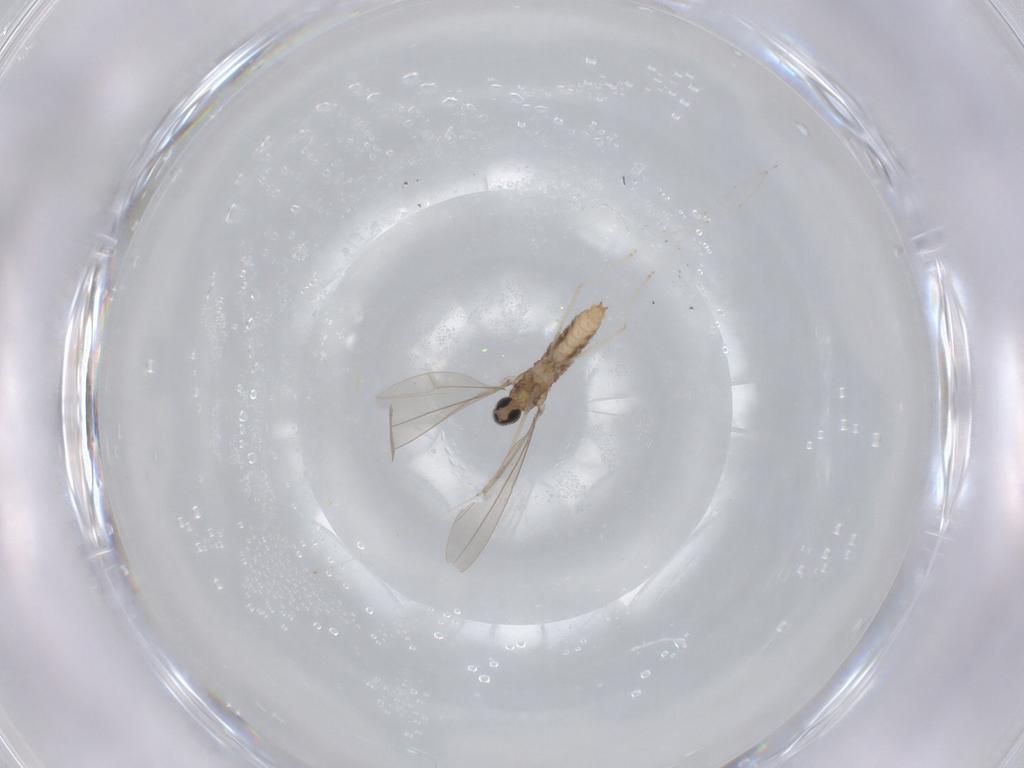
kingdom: Animalia
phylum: Arthropoda
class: Insecta
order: Diptera
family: Cecidomyiidae
